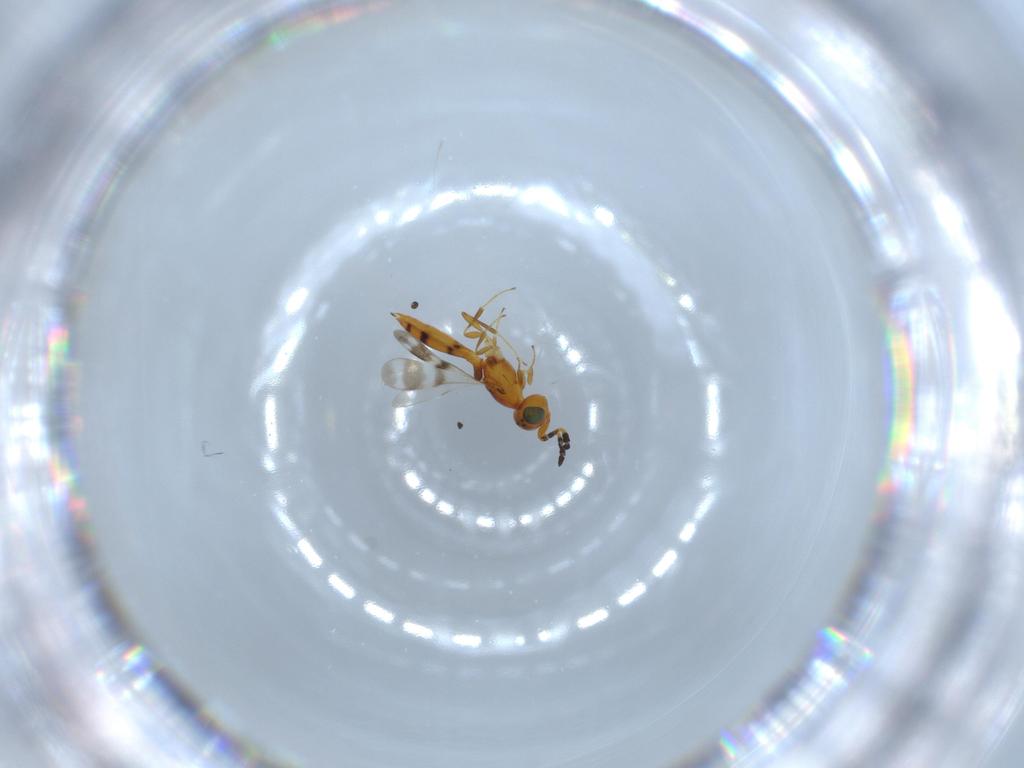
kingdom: Animalia
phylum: Arthropoda
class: Insecta
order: Hymenoptera
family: Scelionidae
